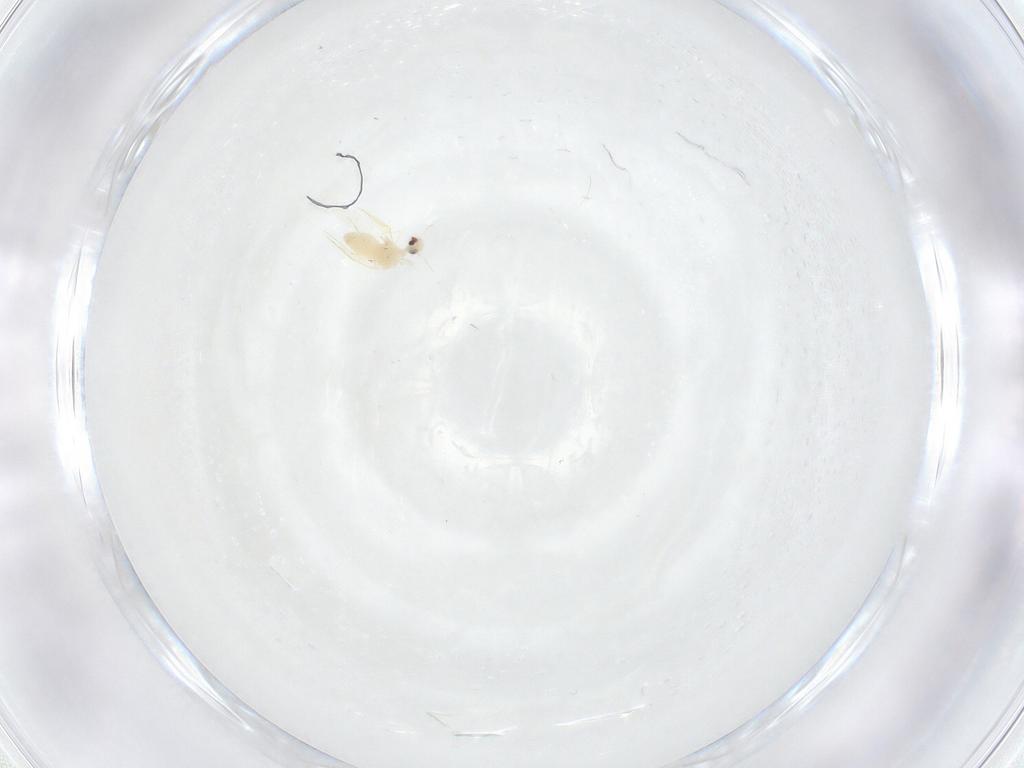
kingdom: Animalia
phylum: Arthropoda
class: Insecta
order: Hemiptera
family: Aleyrodidae
